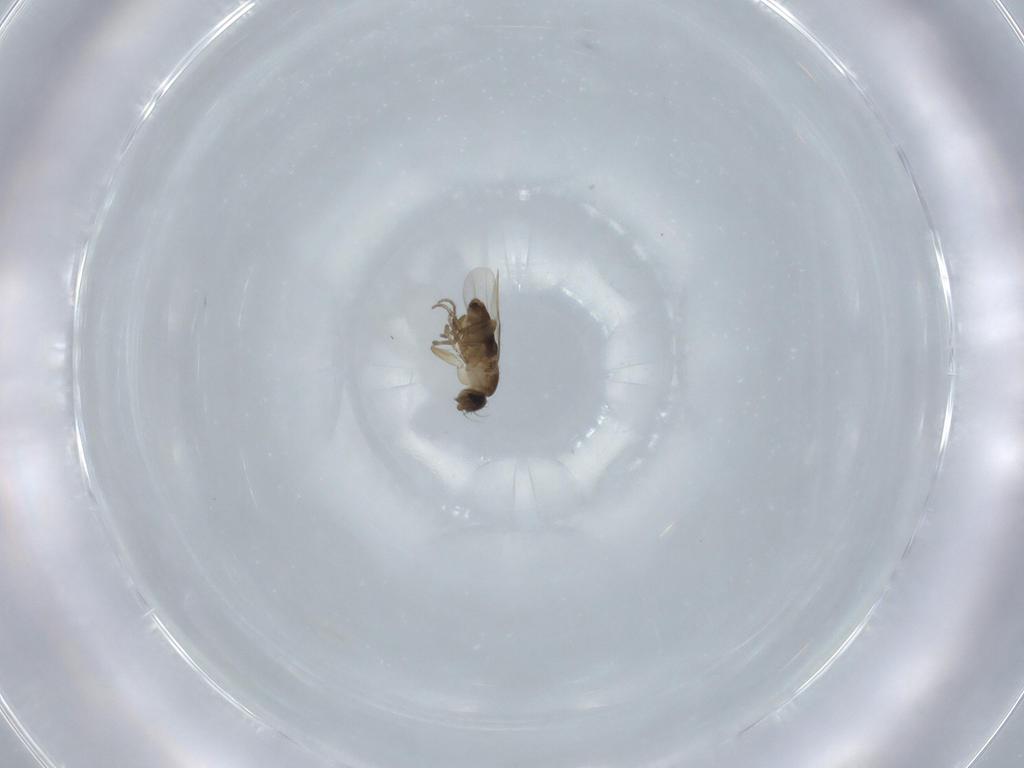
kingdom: Animalia
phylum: Arthropoda
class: Insecta
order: Diptera
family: Phoridae
